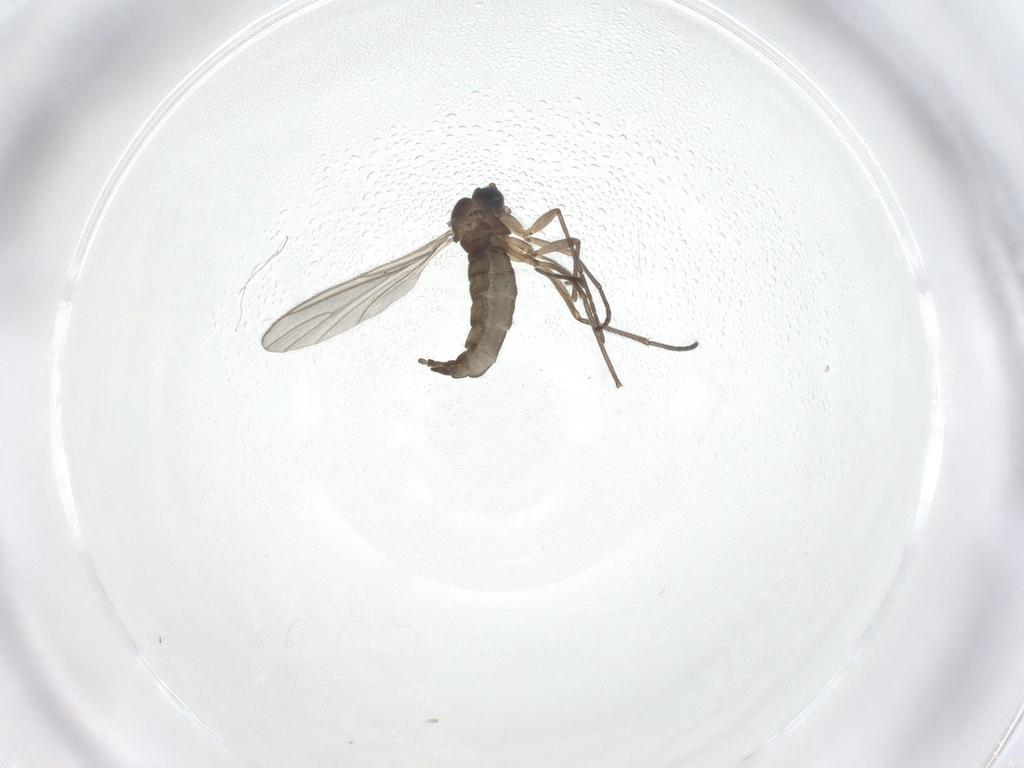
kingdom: Animalia
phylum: Arthropoda
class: Insecta
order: Diptera
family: Sciaridae
